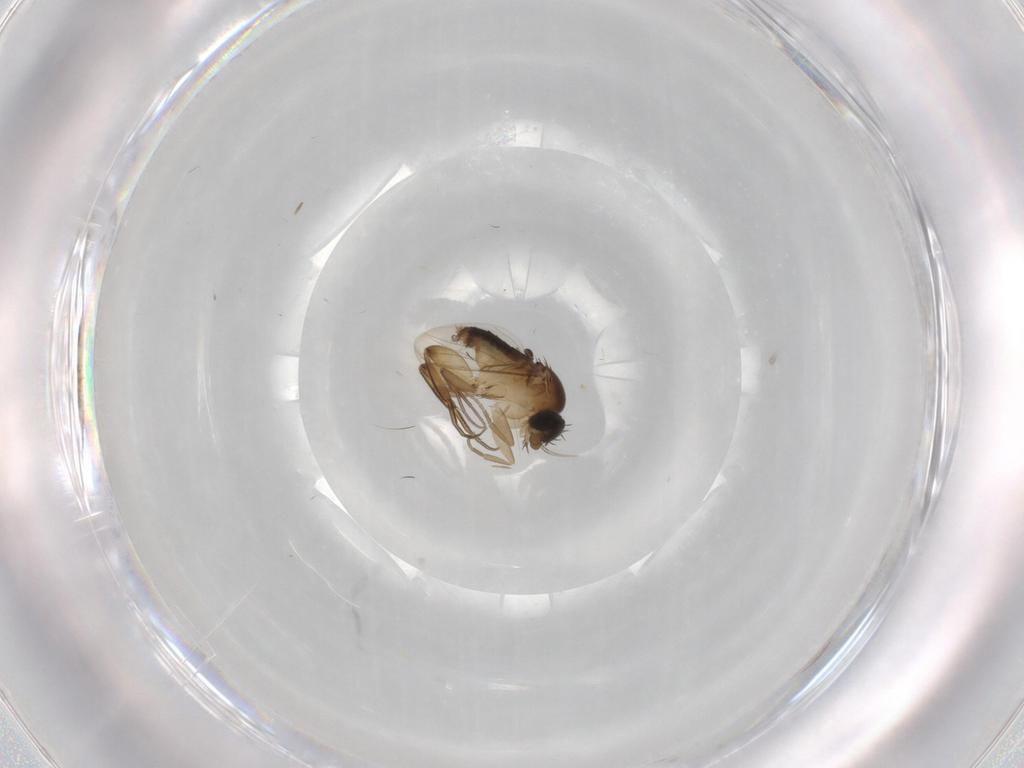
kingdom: Animalia
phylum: Arthropoda
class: Insecta
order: Diptera
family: Phoridae
